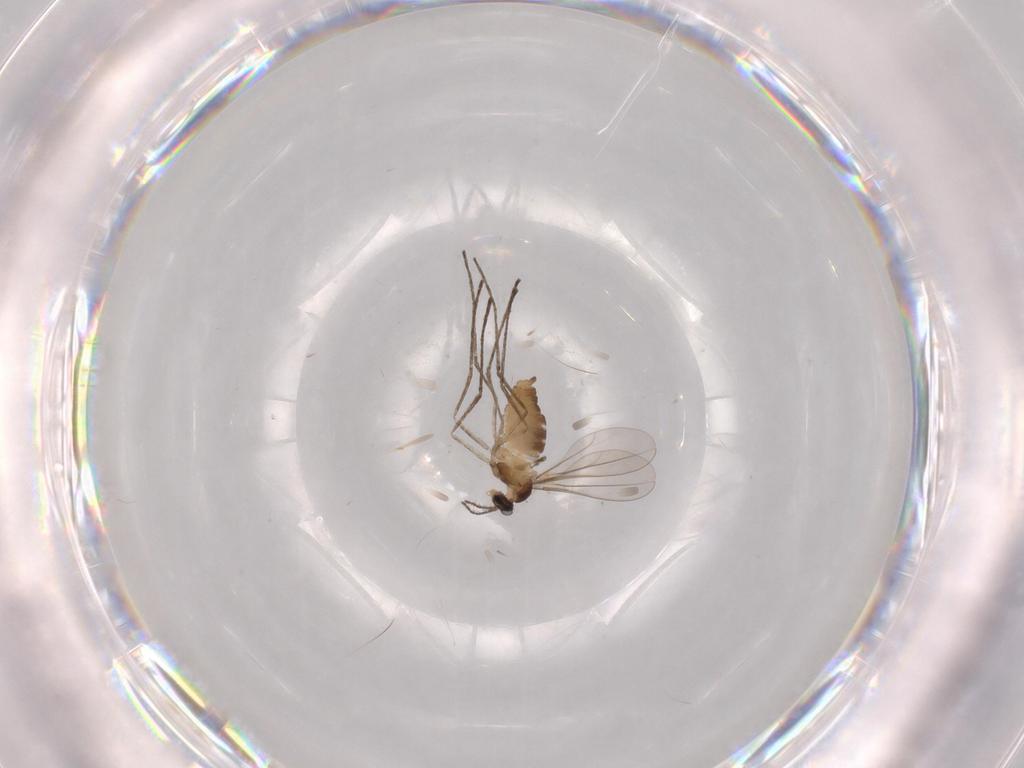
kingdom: Animalia
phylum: Arthropoda
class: Insecta
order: Diptera
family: Cecidomyiidae
